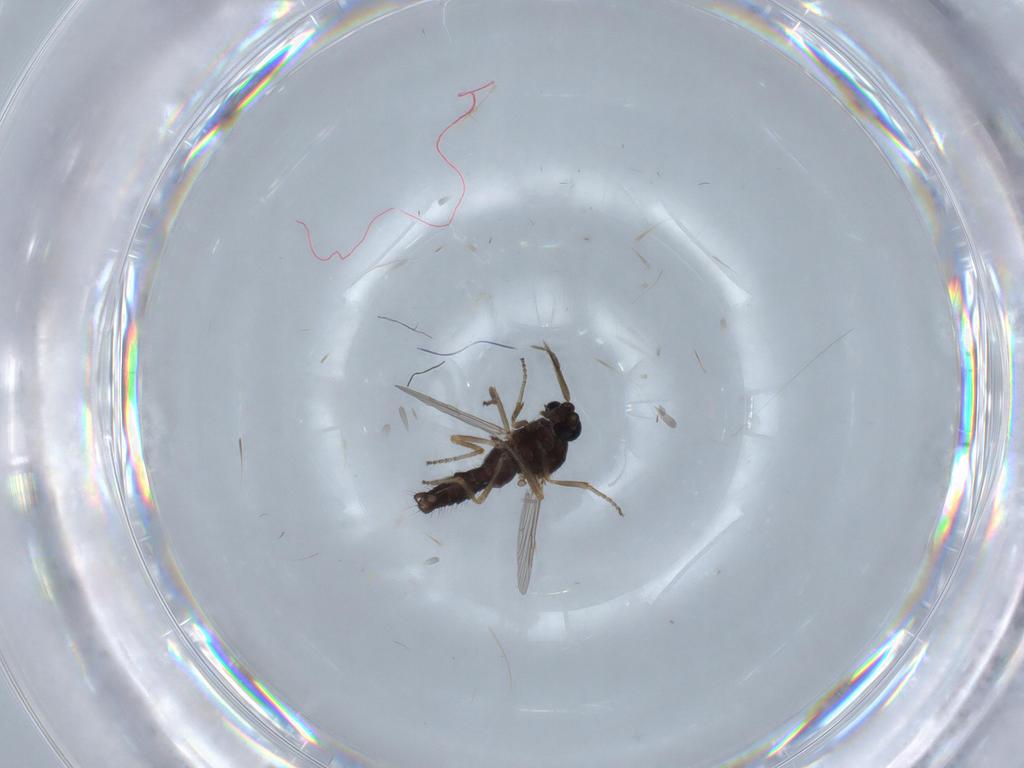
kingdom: Animalia
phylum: Arthropoda
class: Insecta
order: Diptera
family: Ceratopogonidae
